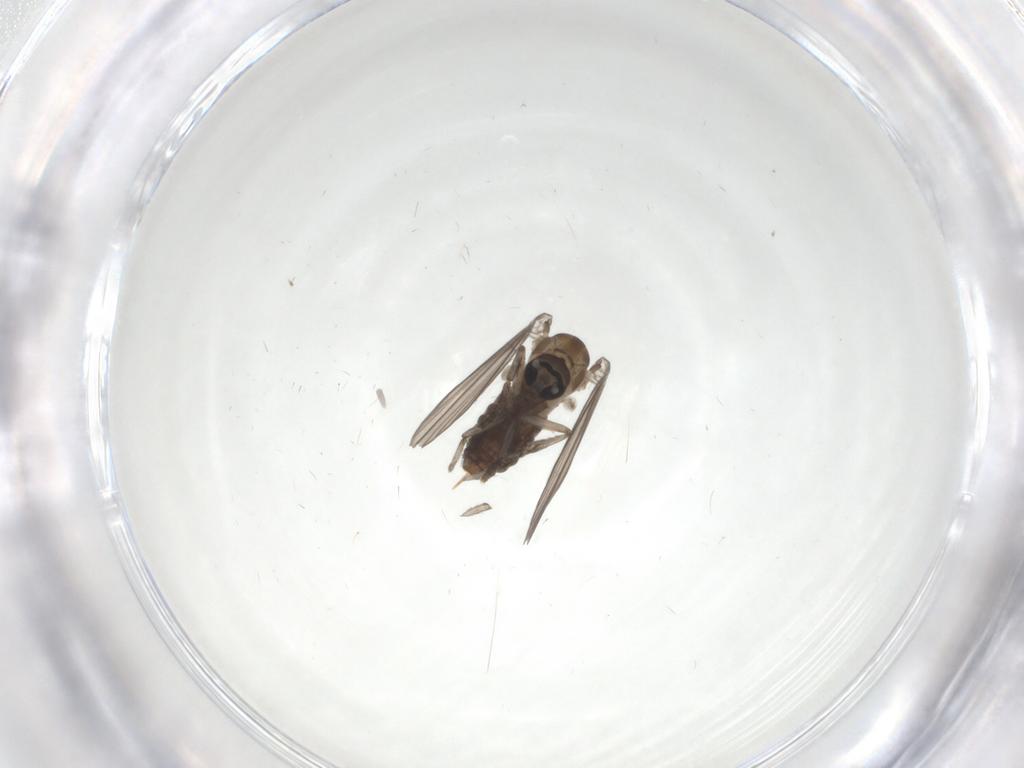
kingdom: Animalia
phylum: Arthropoda
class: Insecta
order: Diptera
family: Psychodidae
